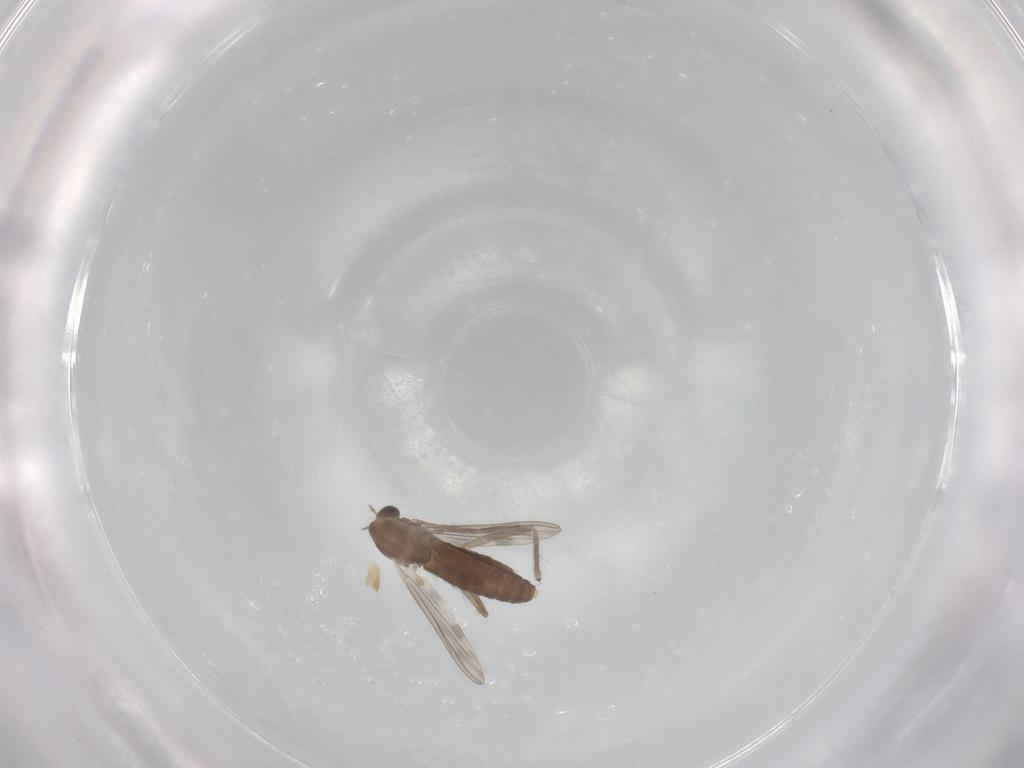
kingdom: Animalia
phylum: Arthropoda
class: Insecta
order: Diptera
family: Chironomidae
